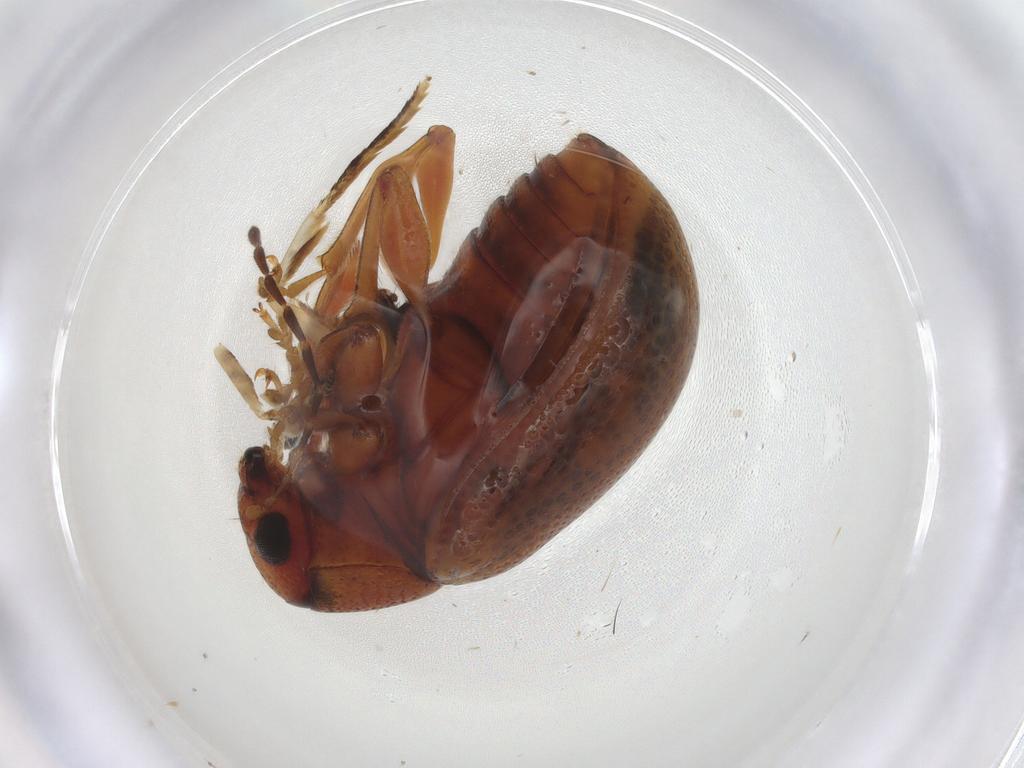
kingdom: Animalia
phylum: Arthropoda
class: Insecta
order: Coleoptera
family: Chrysomelidae
